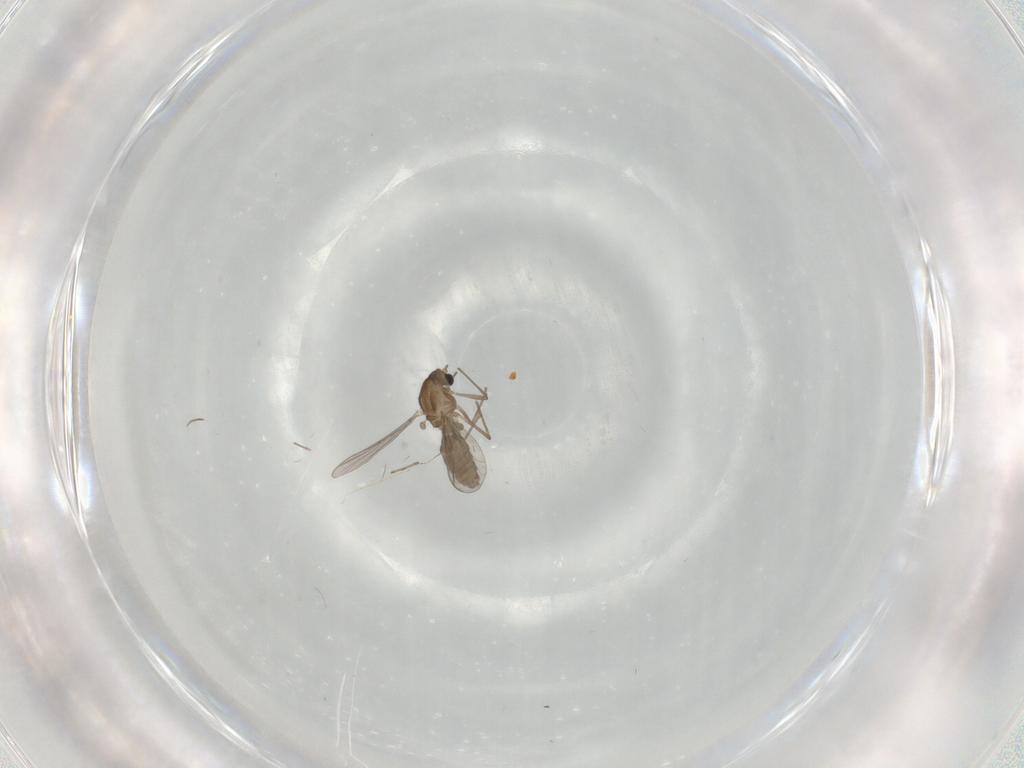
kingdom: Animalia
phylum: Arthropoda
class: Insecta
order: Diptera
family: Chironomidae
